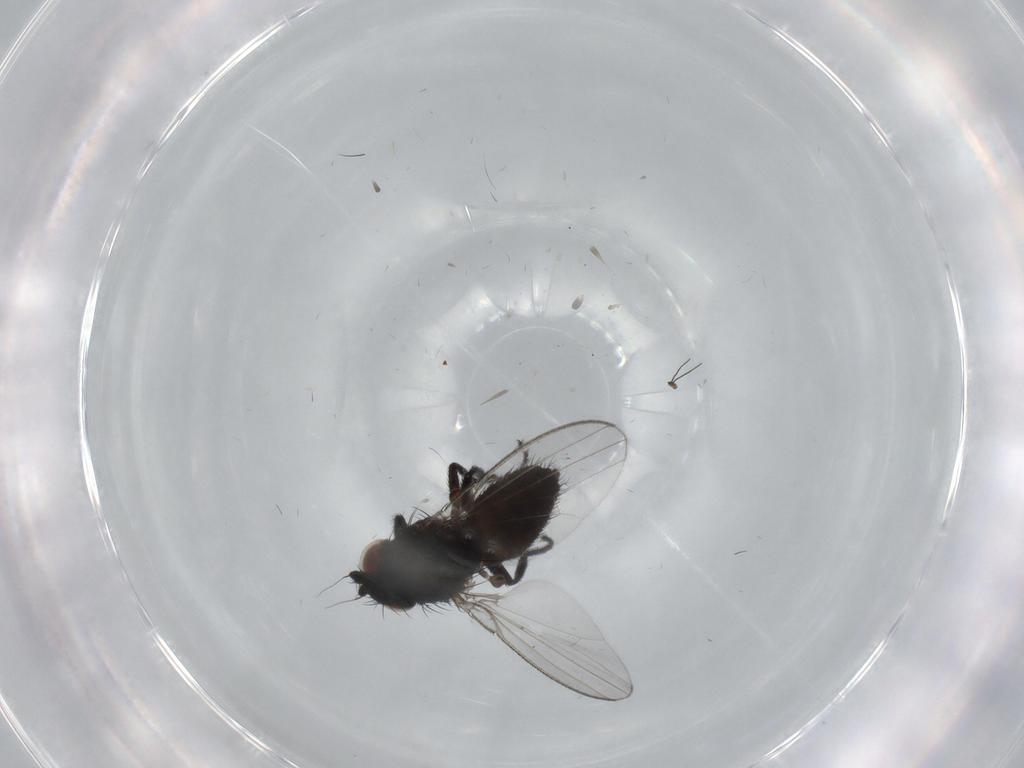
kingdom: Animalia
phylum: Arthropoda
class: Insecta
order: Diptera
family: Milichiidae
